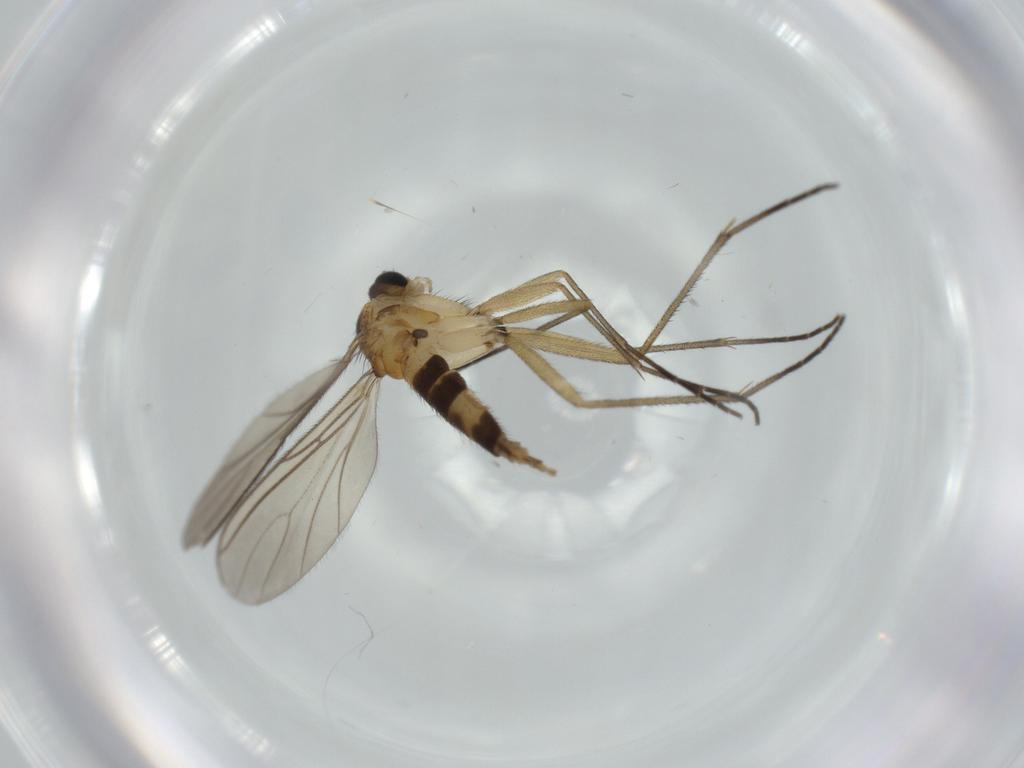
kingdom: Animalia
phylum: Arthropoda
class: Insecta
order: Diptera
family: Sciaridae
